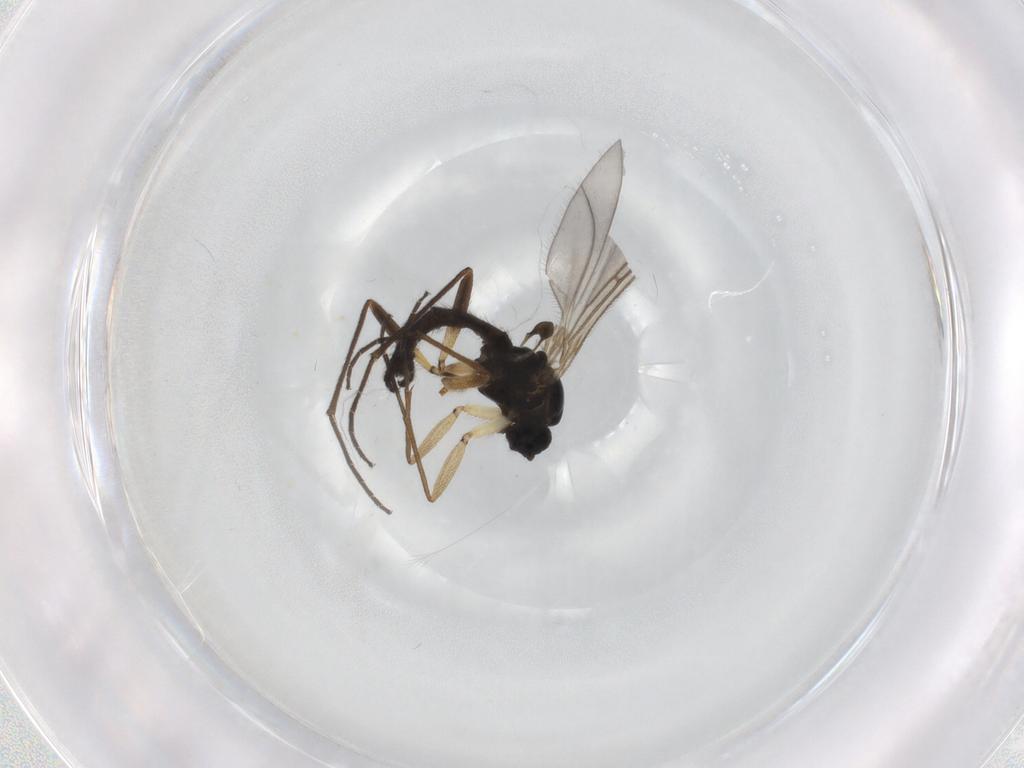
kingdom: Animalia
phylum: Arthropoda
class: Insecta
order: Diptera
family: Sciaridae
